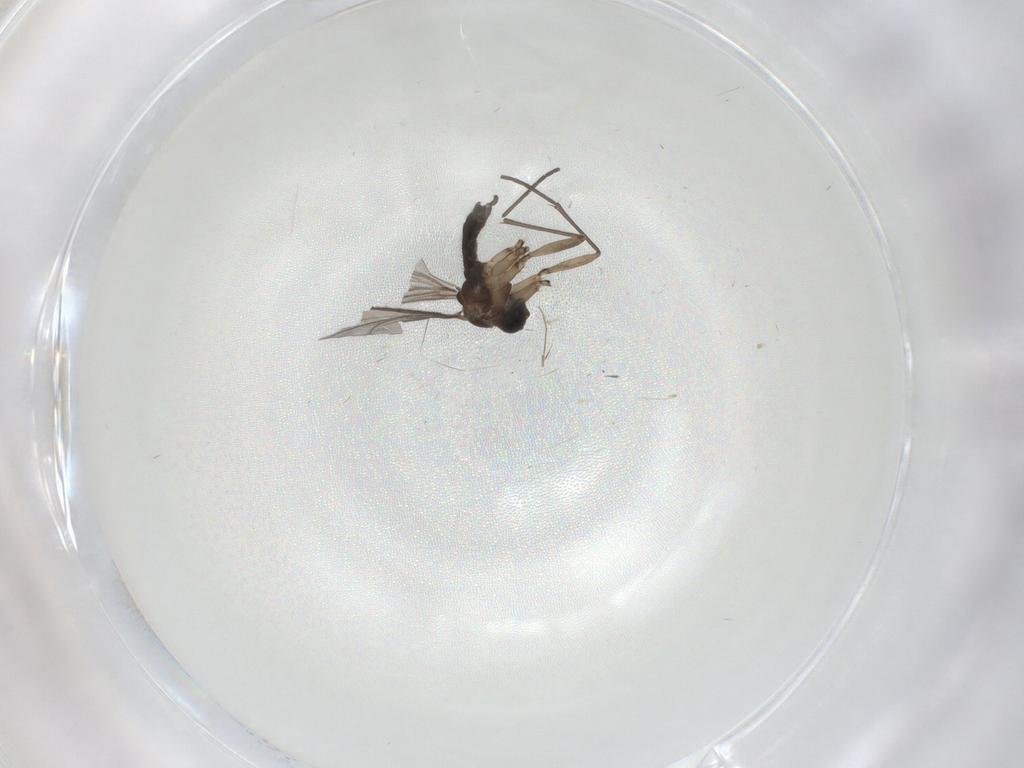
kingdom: Animalia
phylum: Arthropoda
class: Insecta
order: Diptera
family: Sciaridae
